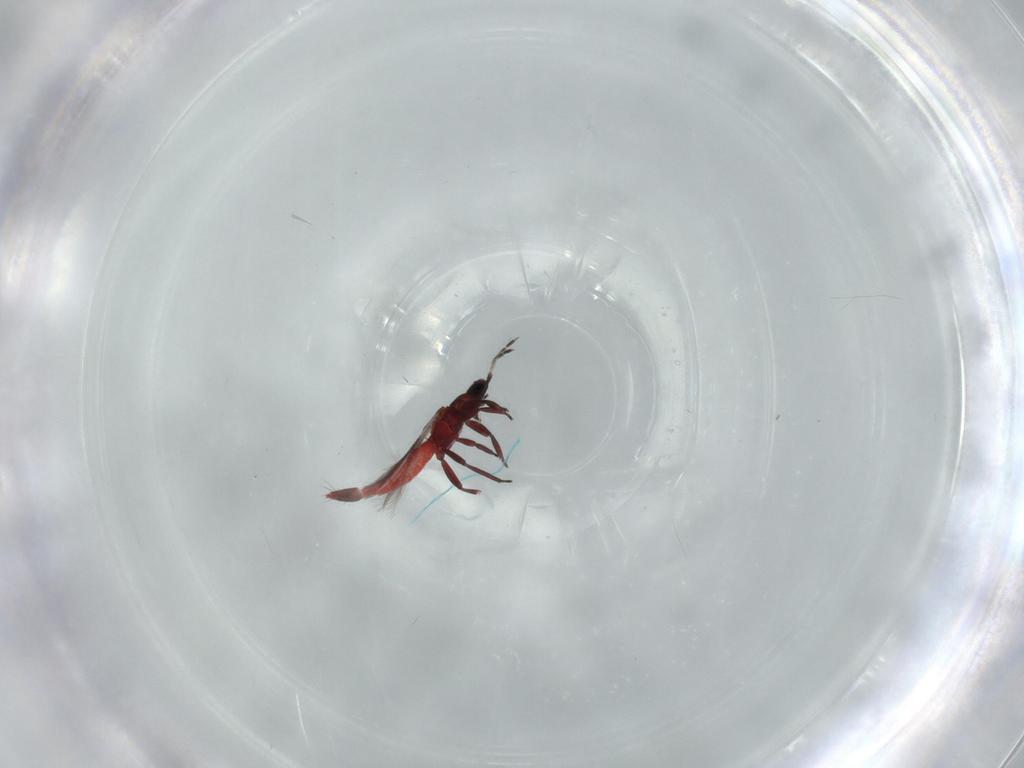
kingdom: Animalia
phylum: Arthropoda
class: Insecta
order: Thysanoptera
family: Aeolothripidae
